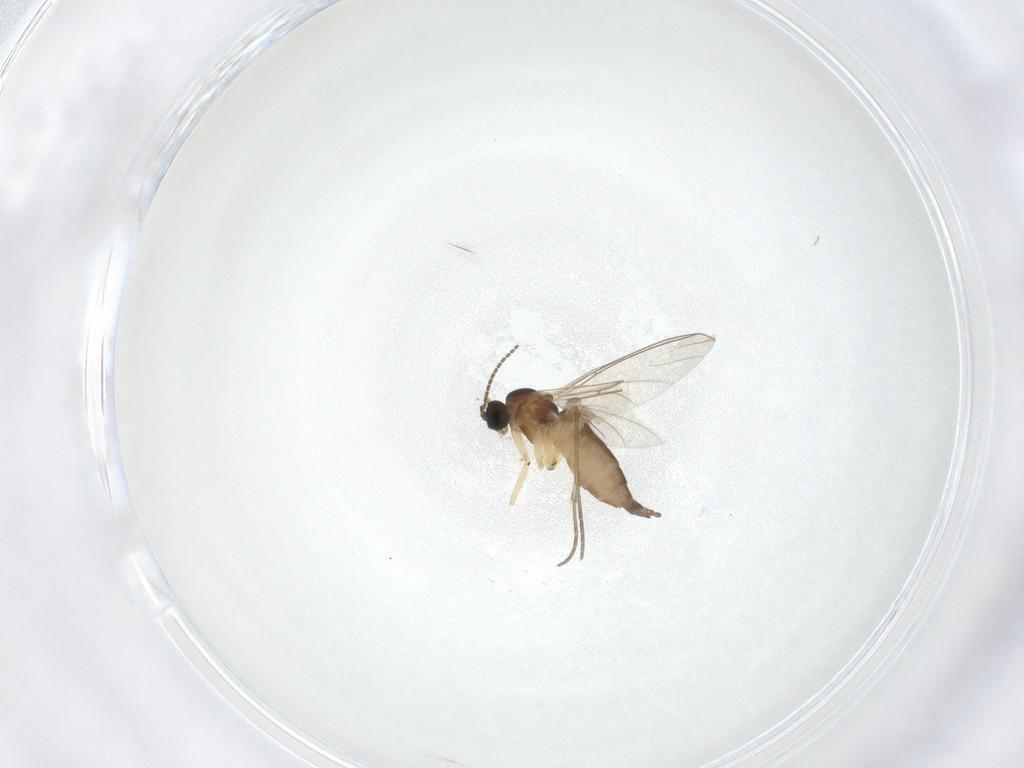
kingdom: Animalia
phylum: Arthropoda
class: Insecta
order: Diptera
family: Sciaridae
